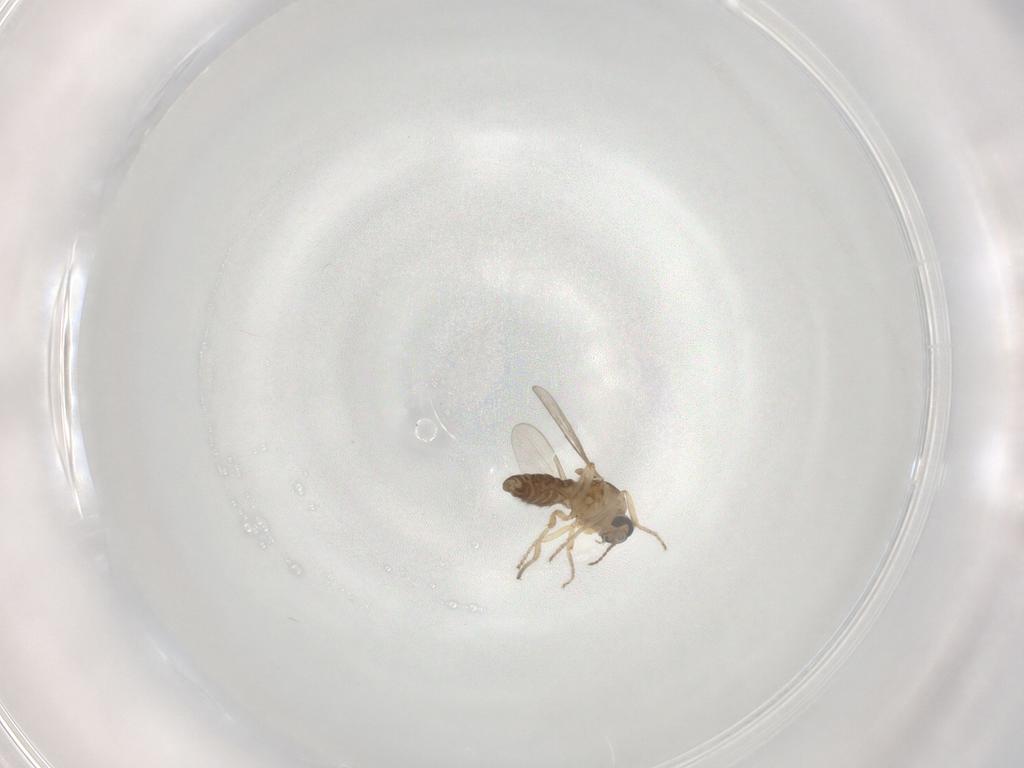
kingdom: Animalia
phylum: Arthropoda
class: Insecta
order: Diptera
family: Ceratopogonidae
